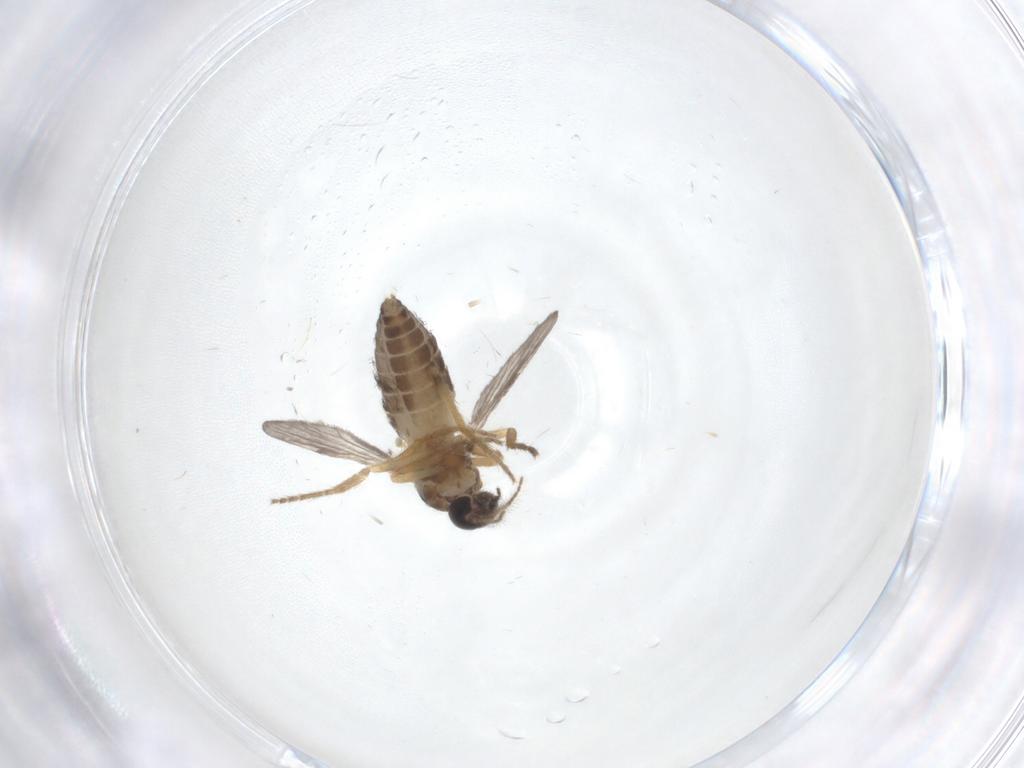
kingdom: Animalia
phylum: Arthropoda
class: Insecta
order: Diptera
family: Ceratopogonidae
